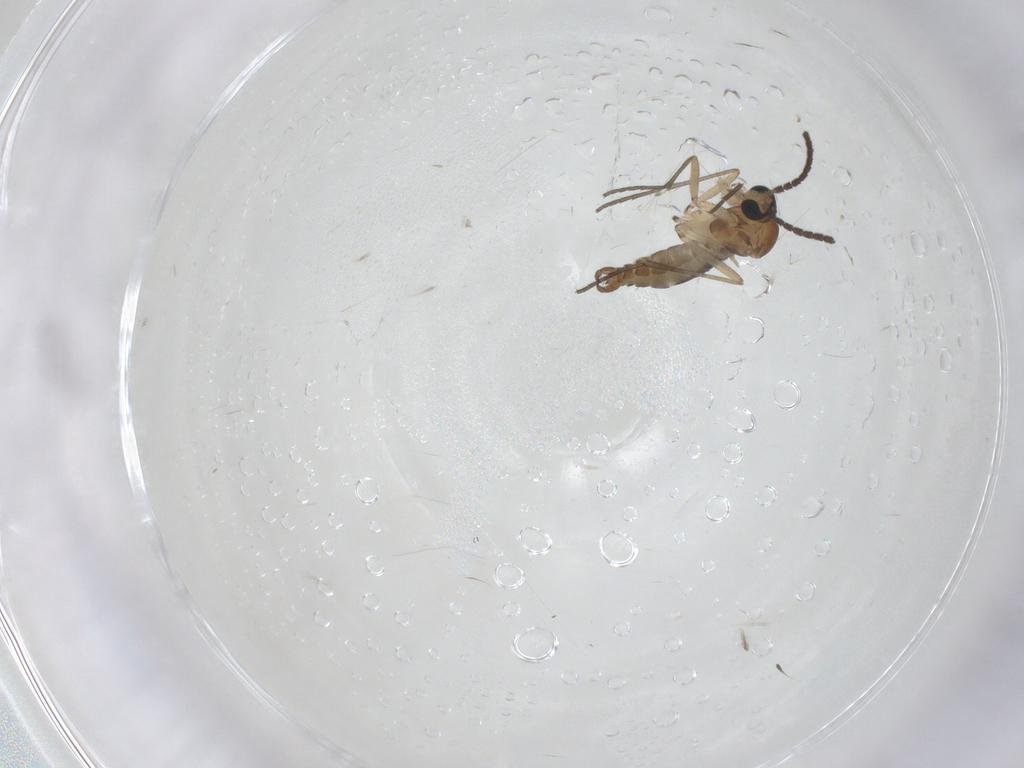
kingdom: Animalia
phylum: Arthropoda
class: Insecta
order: Diptera
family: Sciaridae
